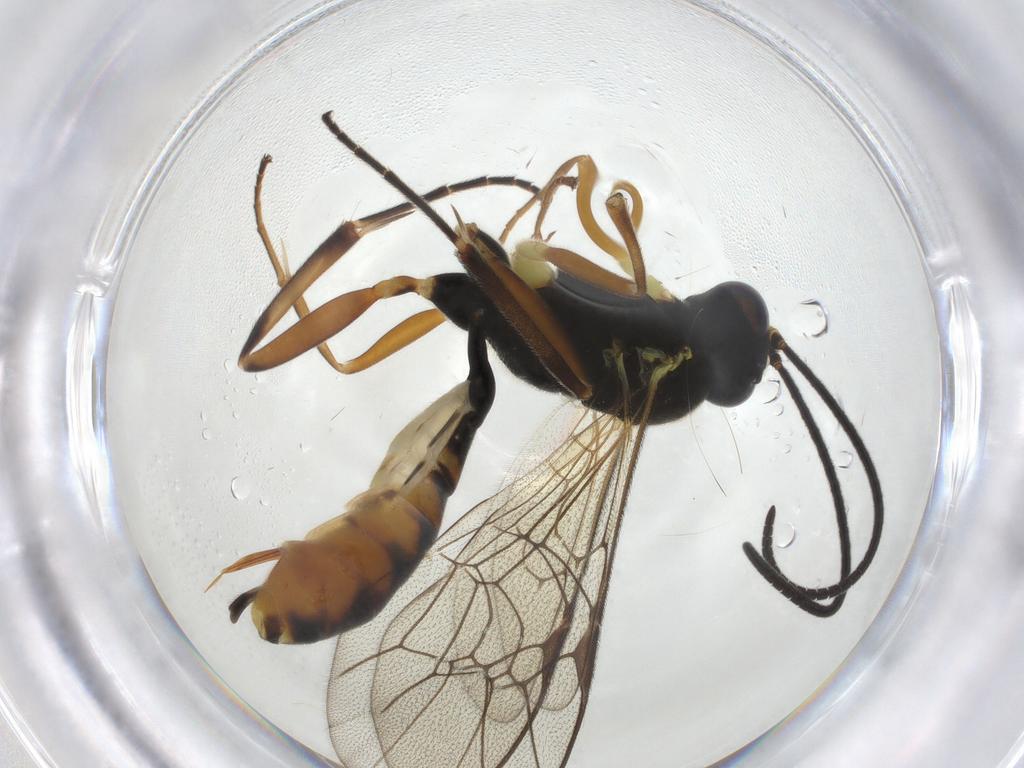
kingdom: Animalia
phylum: Arthropoda
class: Insecta
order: Hymenoptera
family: Ichneumonidae
